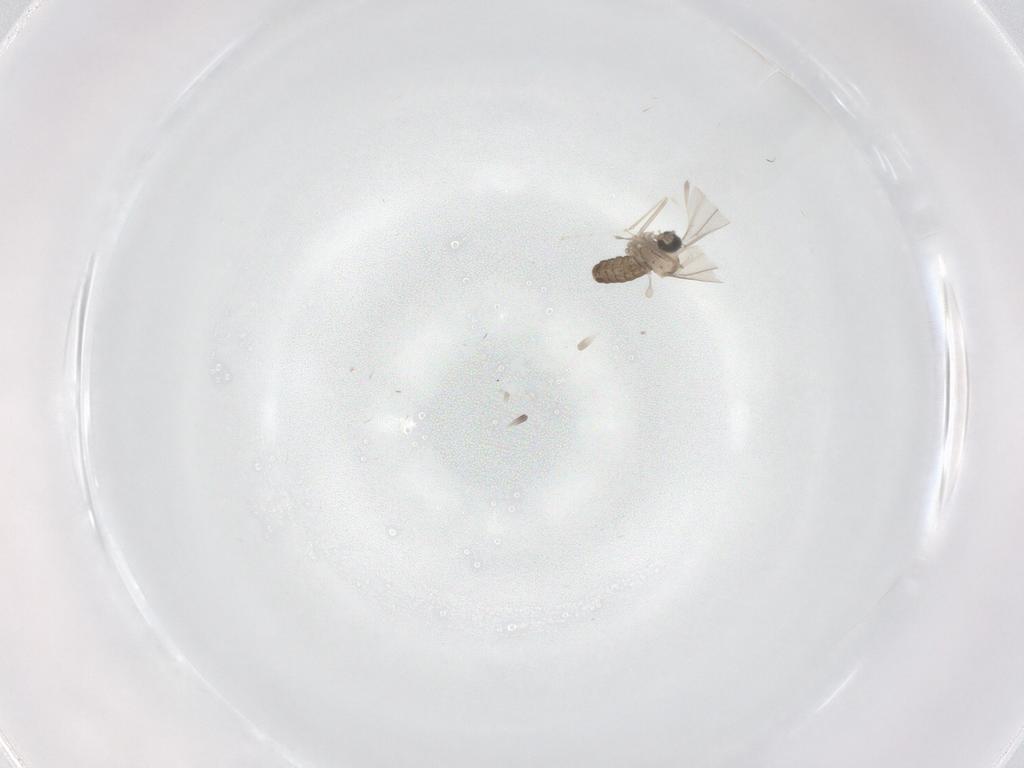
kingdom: Animalia
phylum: Arthropoda
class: Insecta
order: Diptera
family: Cecidomyiidae
